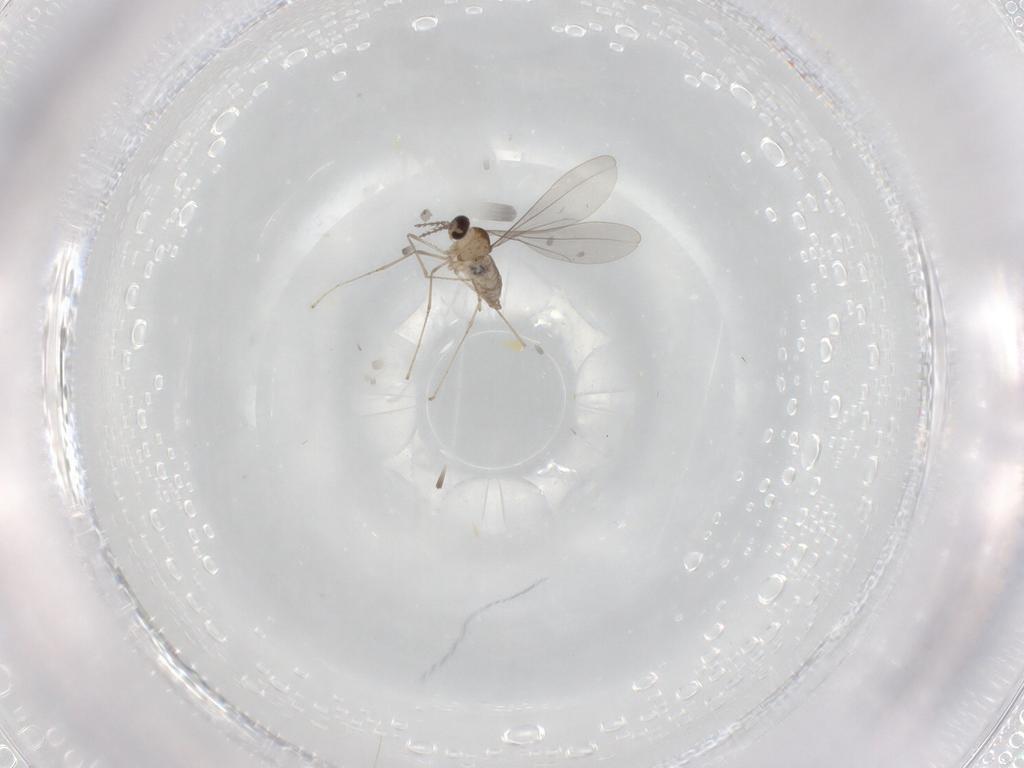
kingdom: Animalia
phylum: Arthropoda
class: Insecta
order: Diptera
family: Cecidomyiidae
